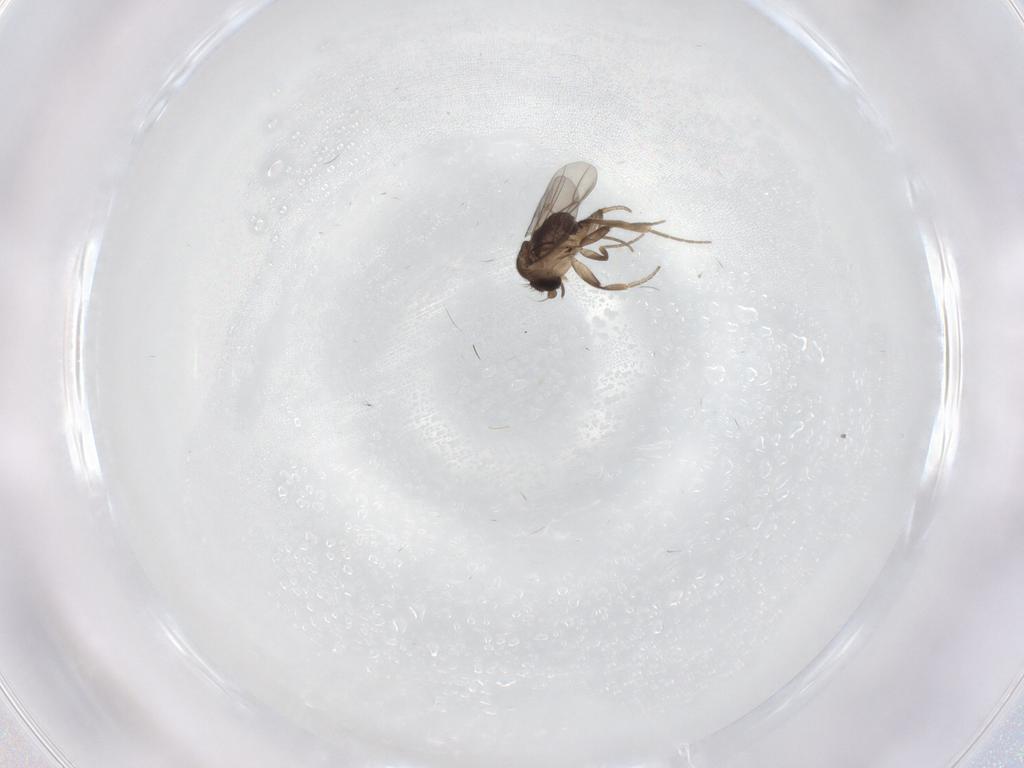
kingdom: Animalia
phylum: Arthropoda
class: Insecta
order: Diptera
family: Phoridae
